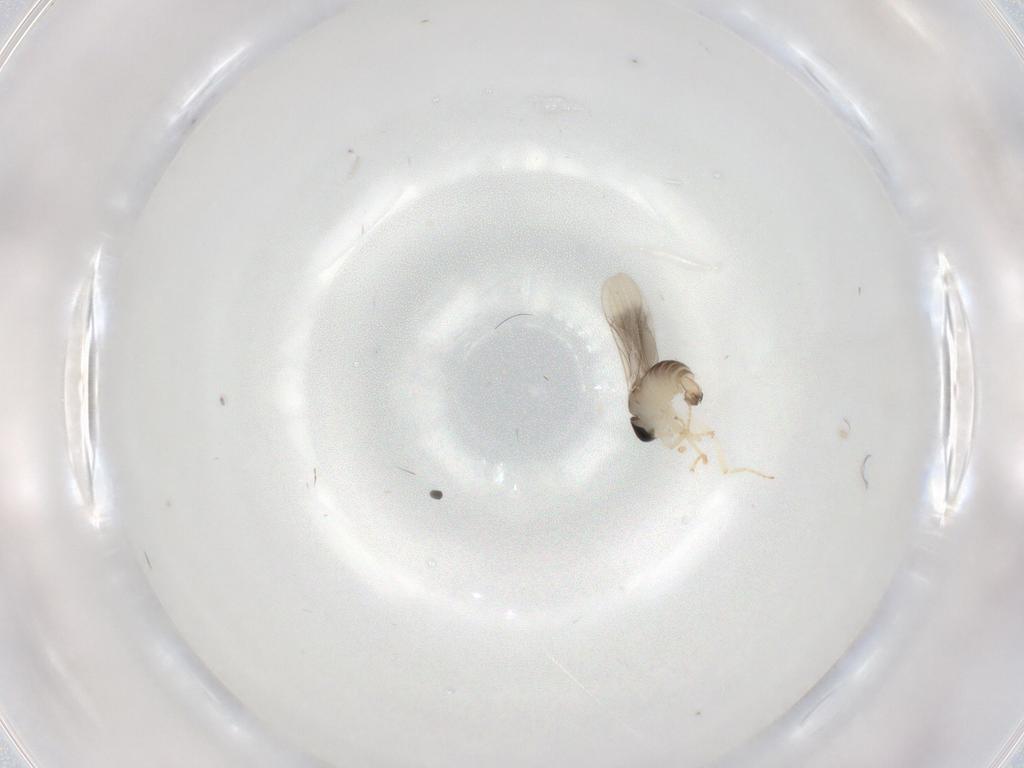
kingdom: Animalia
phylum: Arthropoda
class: Insecta
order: Diptera
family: Hybotidae
